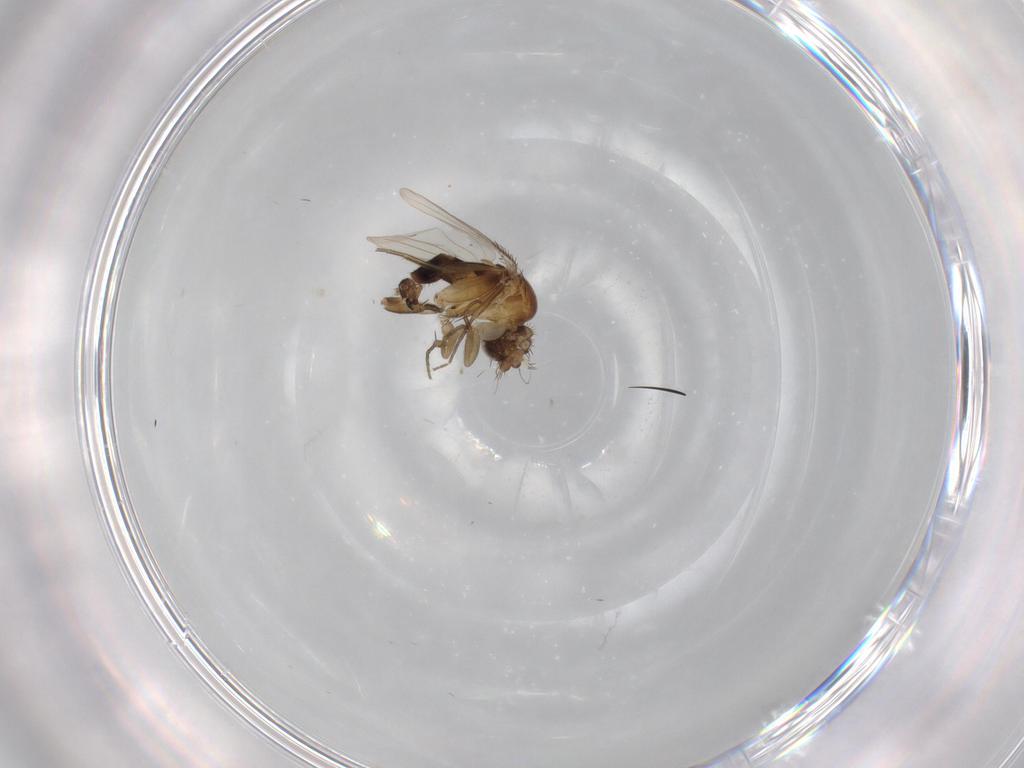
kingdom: Animalia
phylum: Arthropoda
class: Insecta
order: Diptera
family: Phoridae
